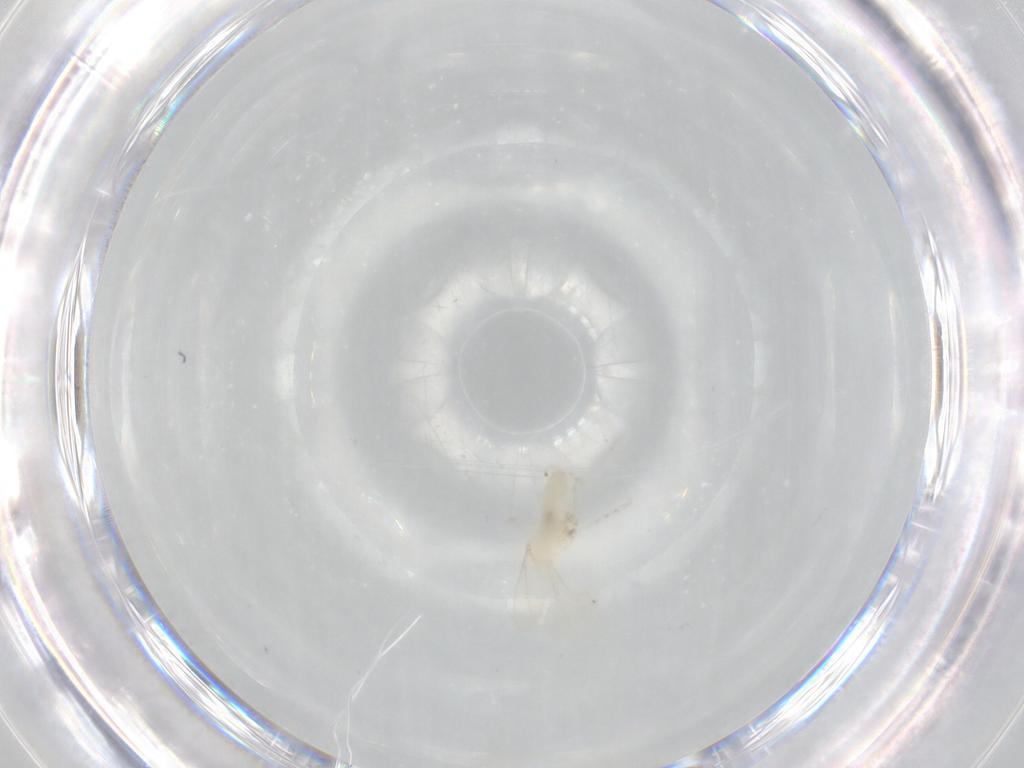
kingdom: Animalia
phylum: Arthropoda
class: Insecta
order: Diptera
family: Cecidomyiidae
